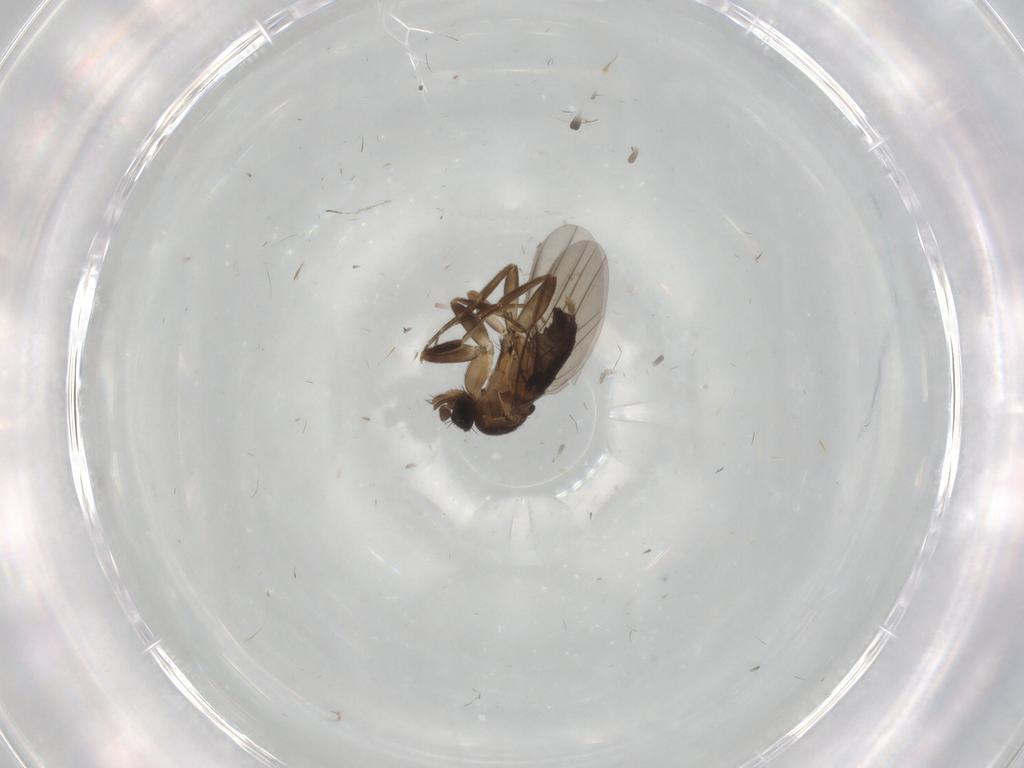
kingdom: Animalia
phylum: Arthropoda
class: Insecta
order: Diptera
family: Cecidomyiidae
